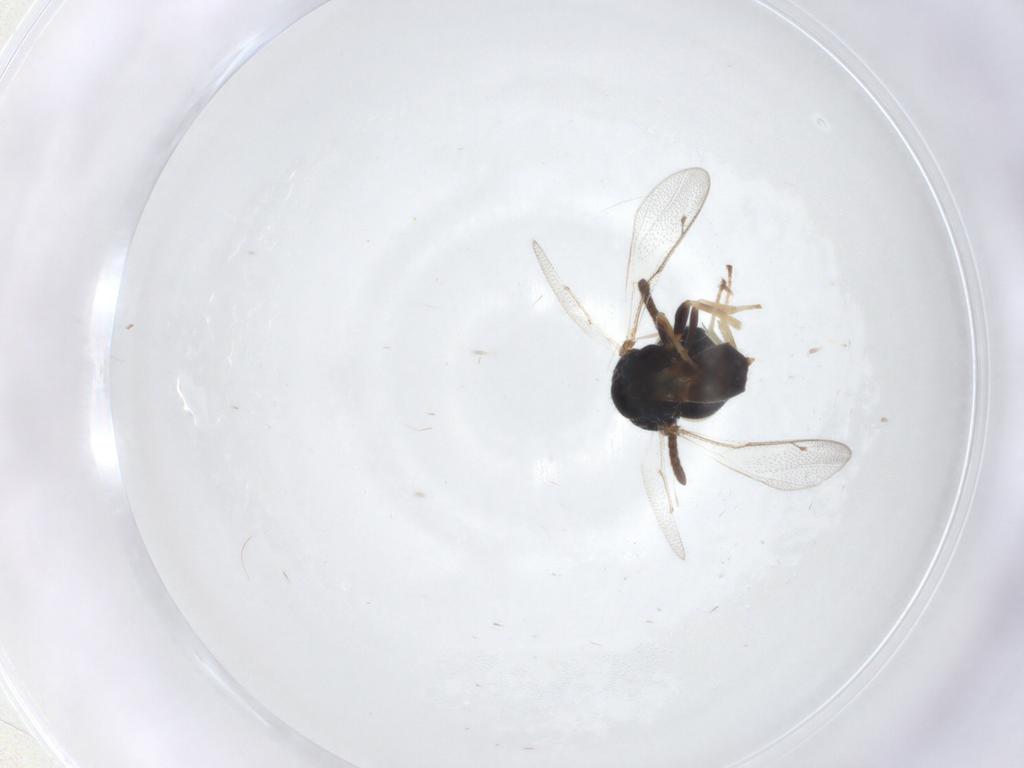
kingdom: Animalia
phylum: Arthropoda
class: Insecta
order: Hymenoptera
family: Pteromalidae
